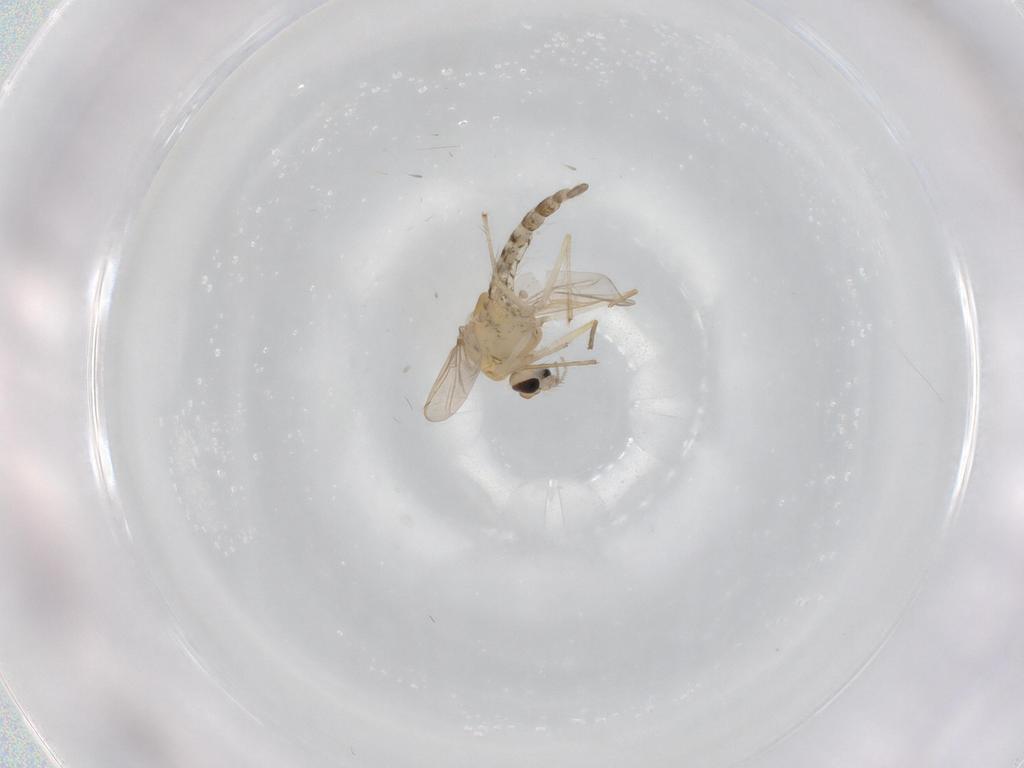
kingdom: Animalia
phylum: Arthropoda
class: Insecta
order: Diptera
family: Chironomidae
